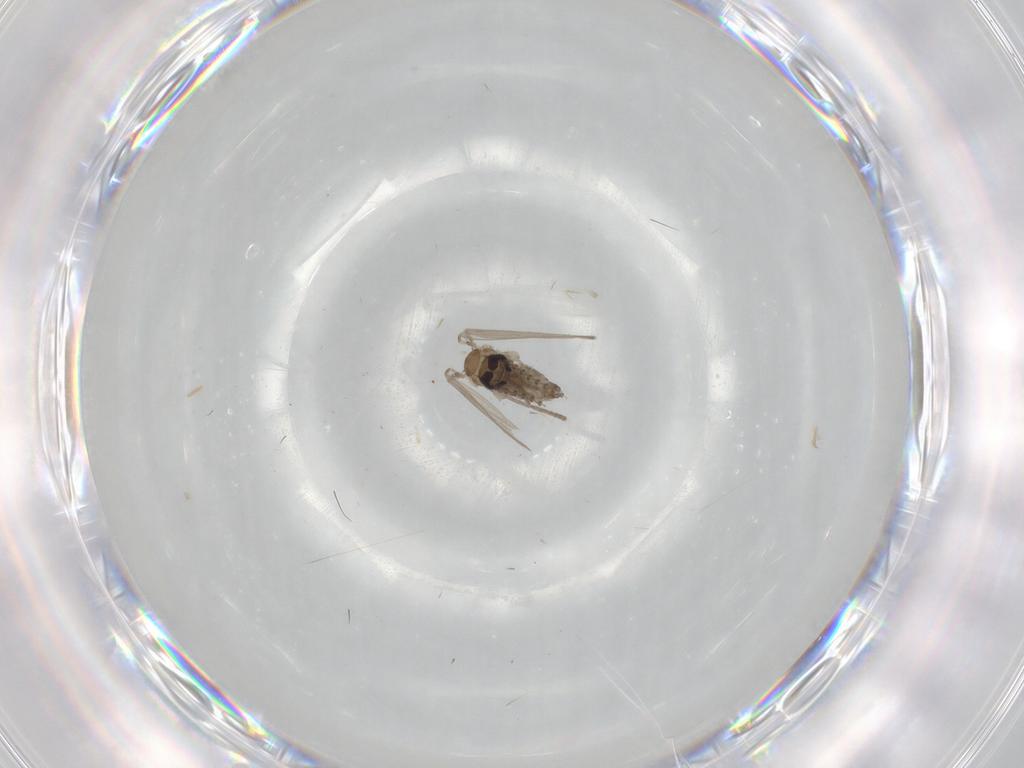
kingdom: Animalia
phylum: Arthropoda
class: Insecta
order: Diptera
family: Psychodidae
